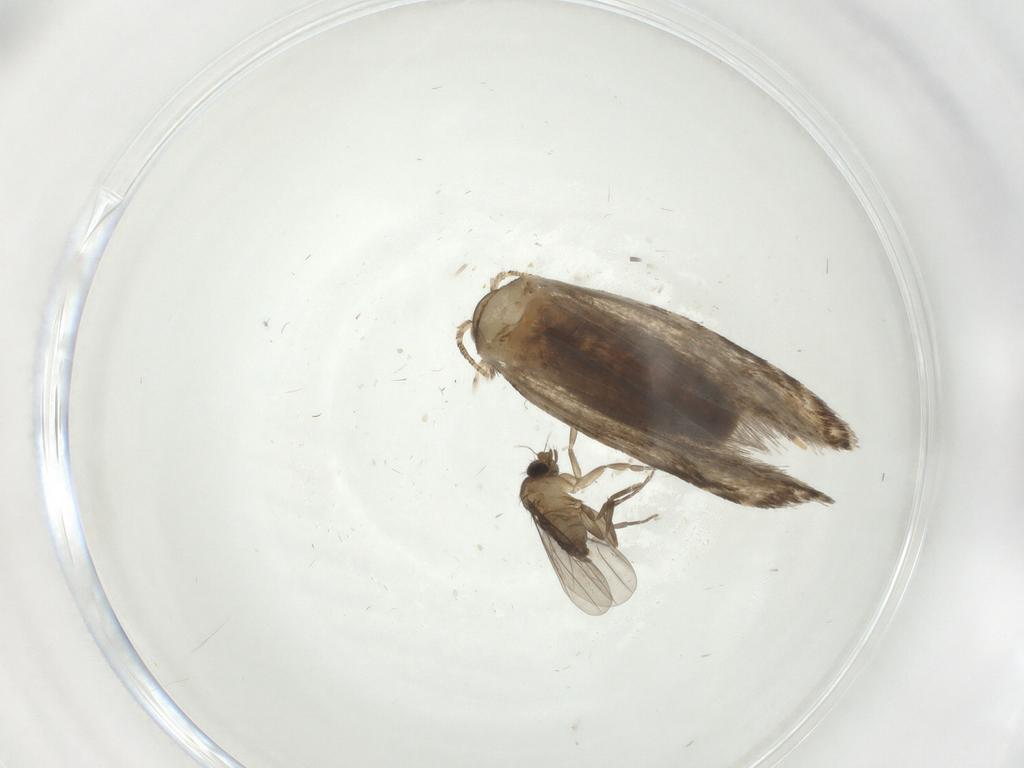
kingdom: Animalia
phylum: Arthropoda
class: Insecta
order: Lepidoptera
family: Tineidae
